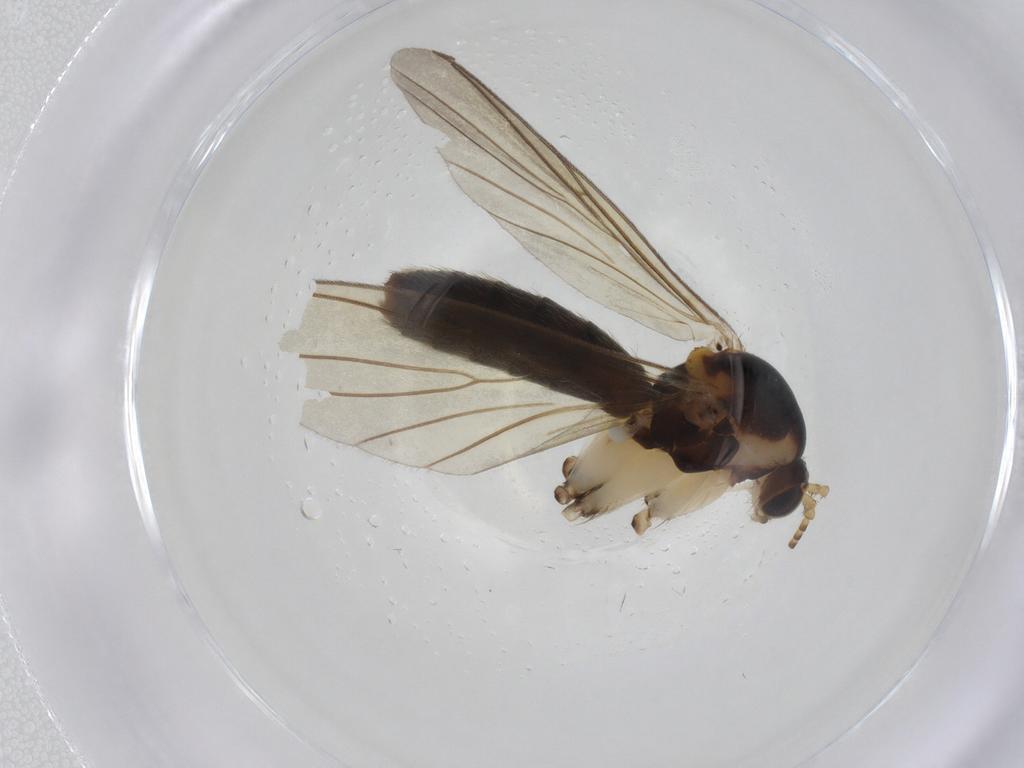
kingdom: Animalia
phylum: Arthropoda
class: Insecta
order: Diptera
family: Mycetophilidae
